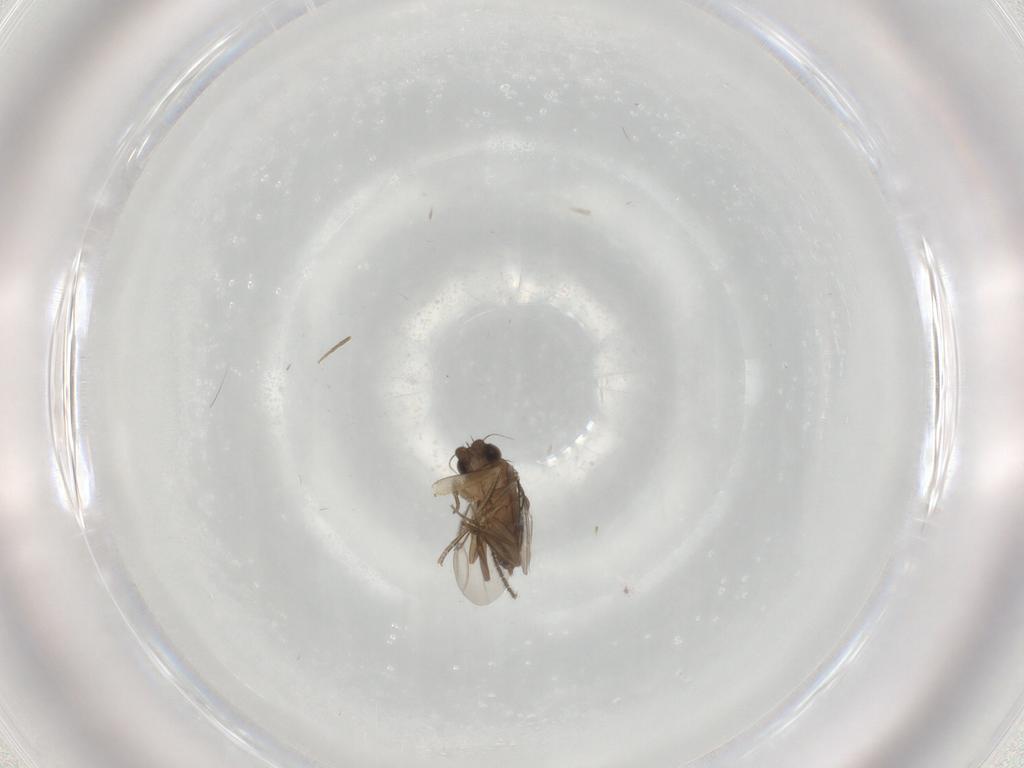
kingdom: Animalia
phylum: Arthropoda
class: Insecta
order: Diptera
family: Phoridae
